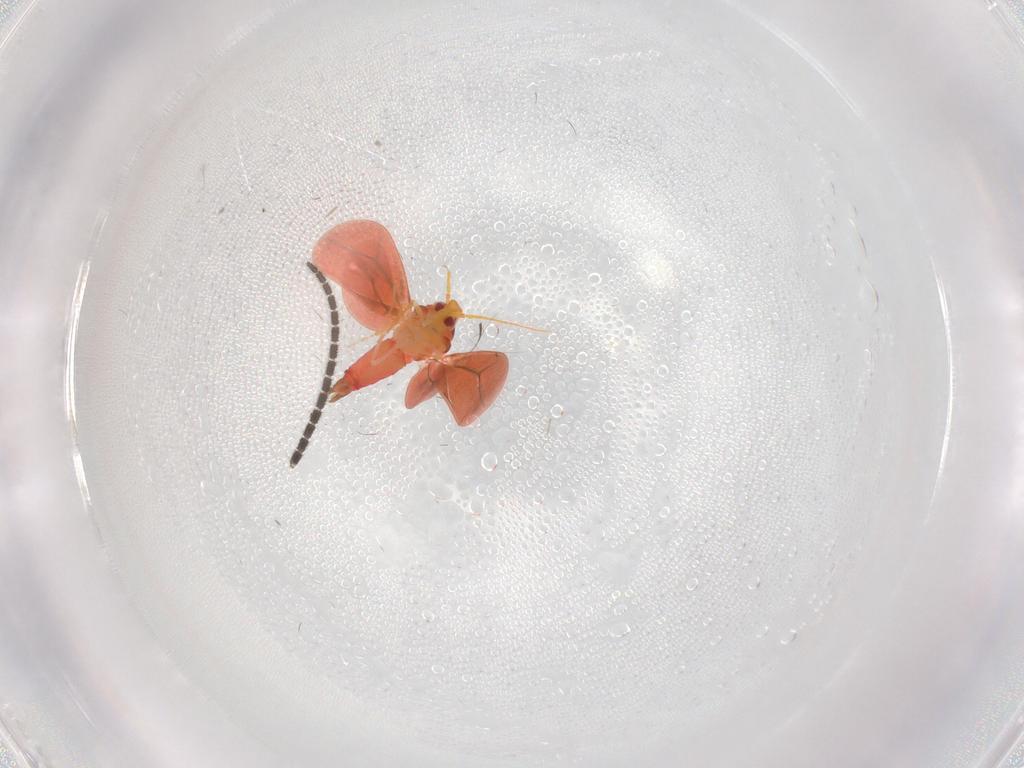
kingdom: Animalia
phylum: Arthropoda
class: Insecta
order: Hemiptera
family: Aleyrodidae
